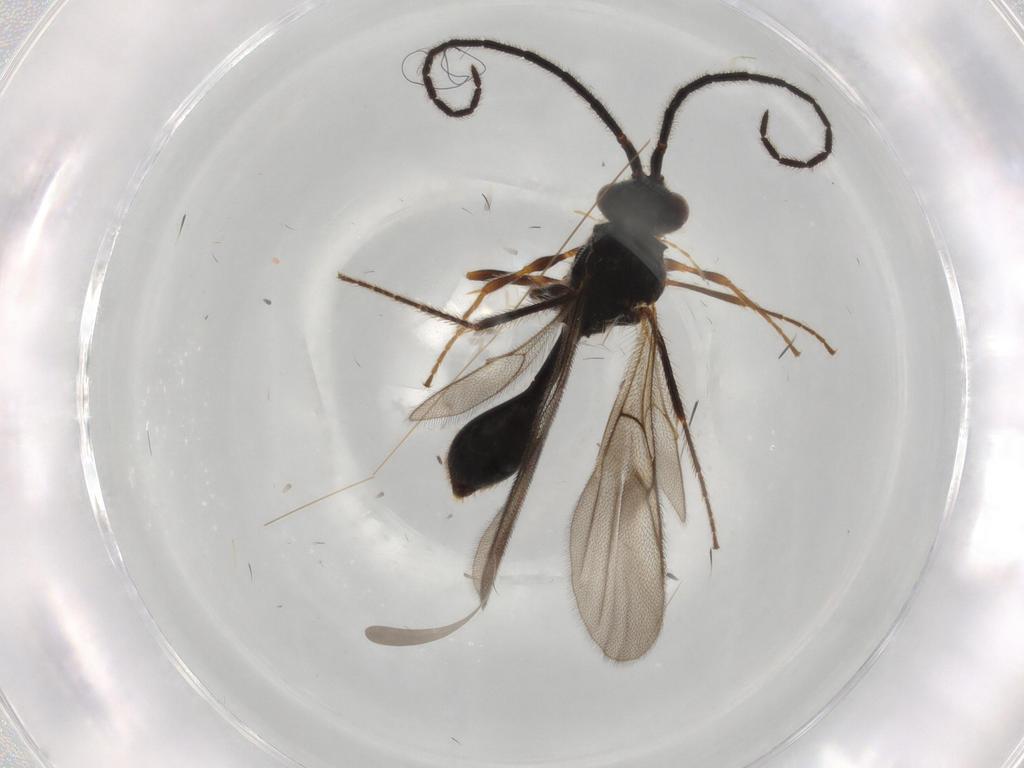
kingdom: Animalia
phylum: Arthropoda
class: Insecta
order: Hymenoptera
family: Diapriidae
